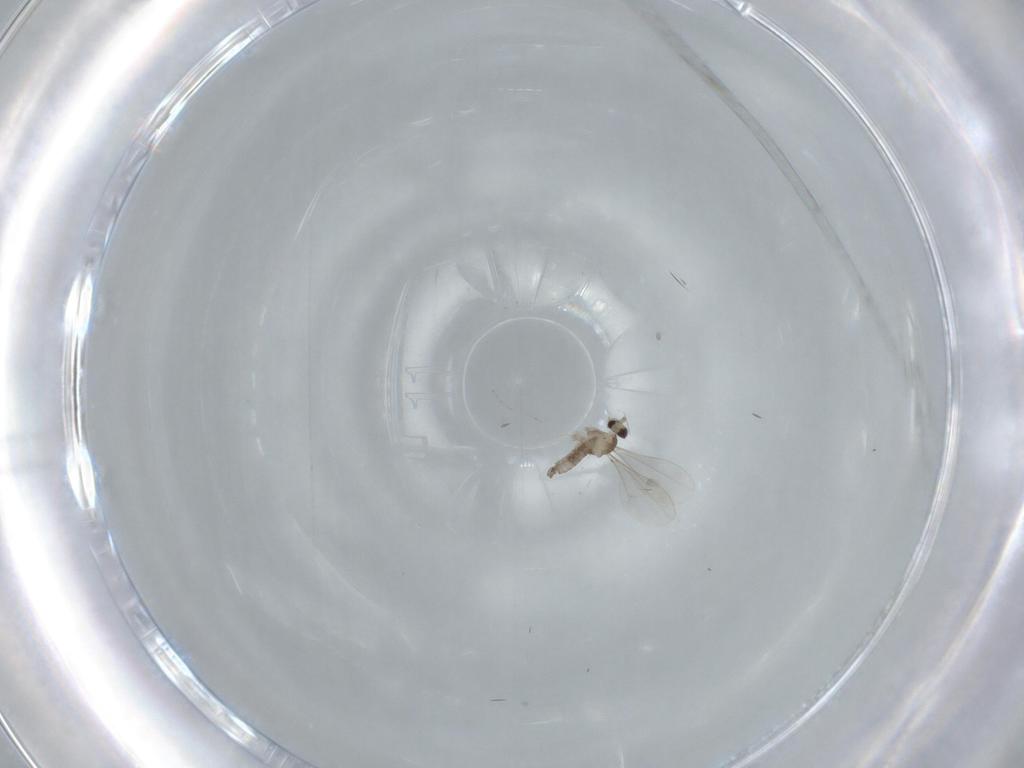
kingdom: Animalia
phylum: Arthropoda
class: Insecta
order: Diptera
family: Cecidomyiidae
